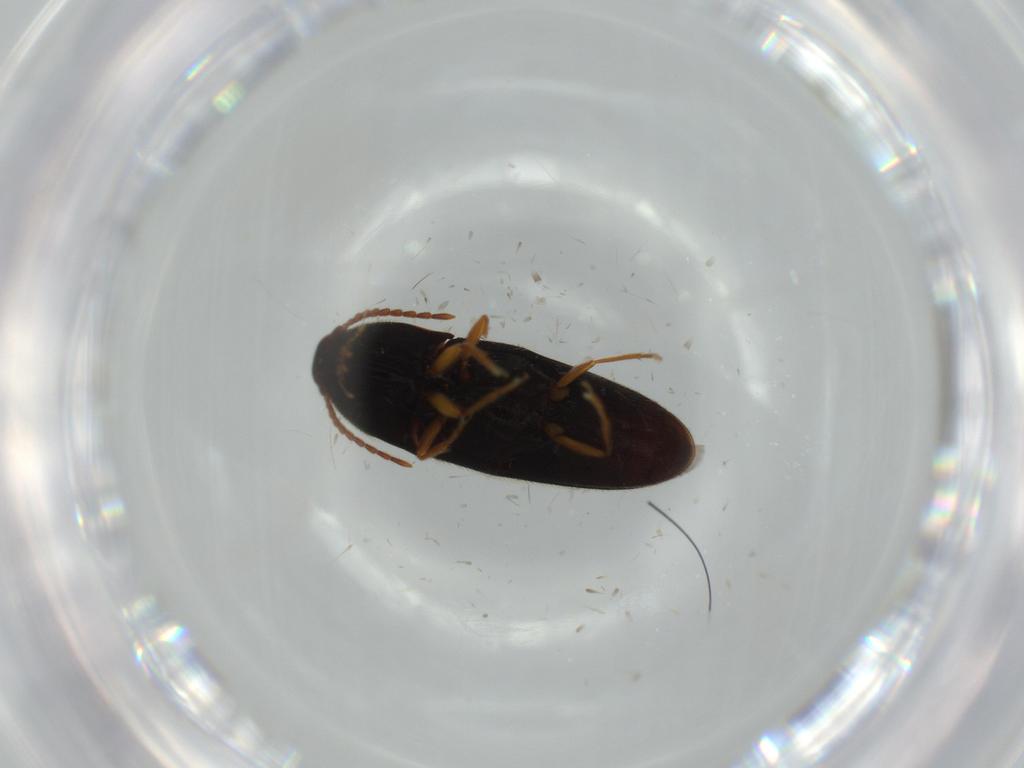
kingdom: Animalia
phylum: Arthropoda
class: Insecta
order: Coleoptera
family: Elateridae
